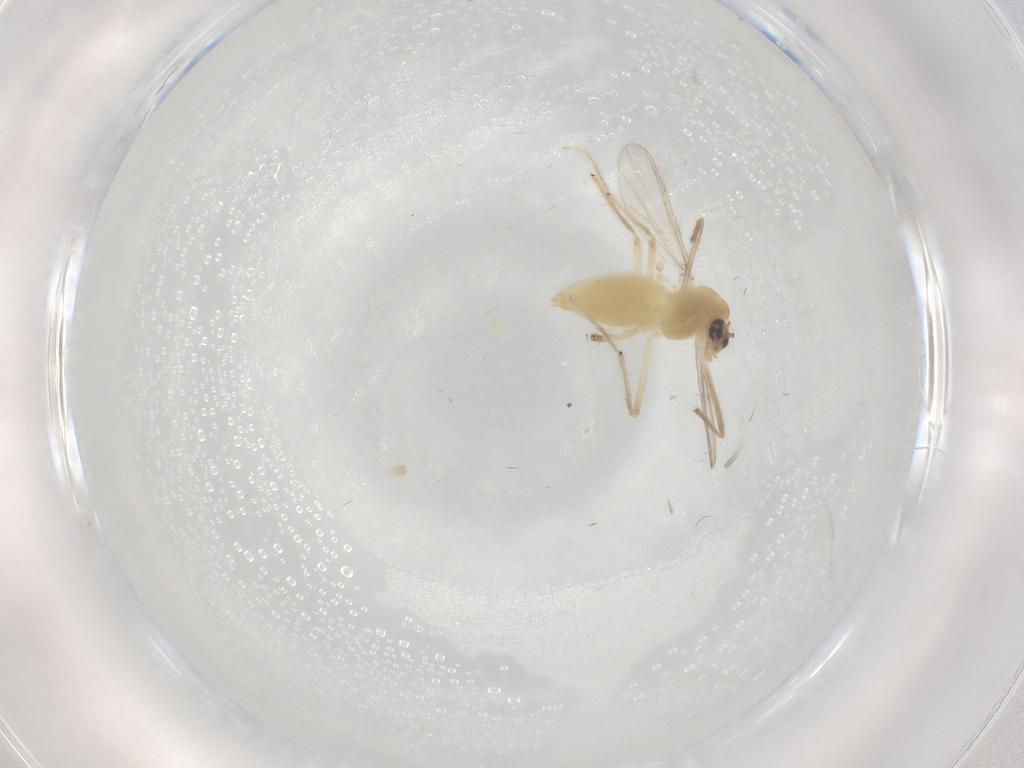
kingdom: Animalia
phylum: Arthropoda
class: Insecta
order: Diptera
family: Chironomidae
